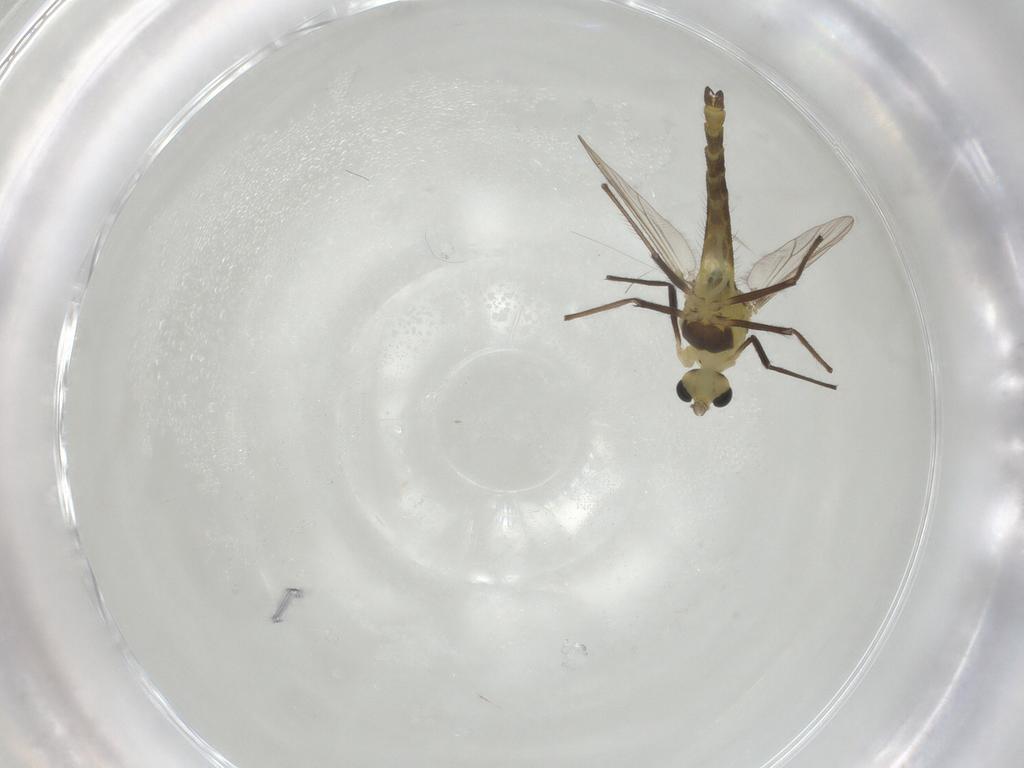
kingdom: Animalia
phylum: Arthropoda
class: Insecta
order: Diptera
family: Chironomidae
